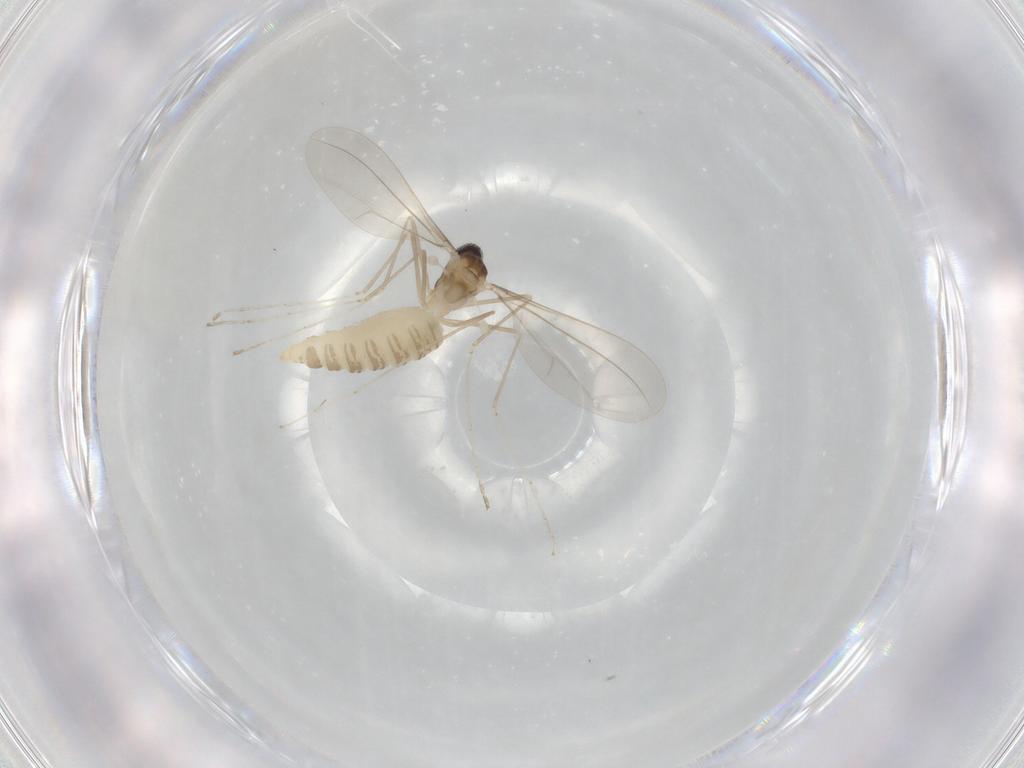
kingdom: Animalia
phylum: Arthropoda
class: Insecta
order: Diptera
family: Cecidomyiidae
